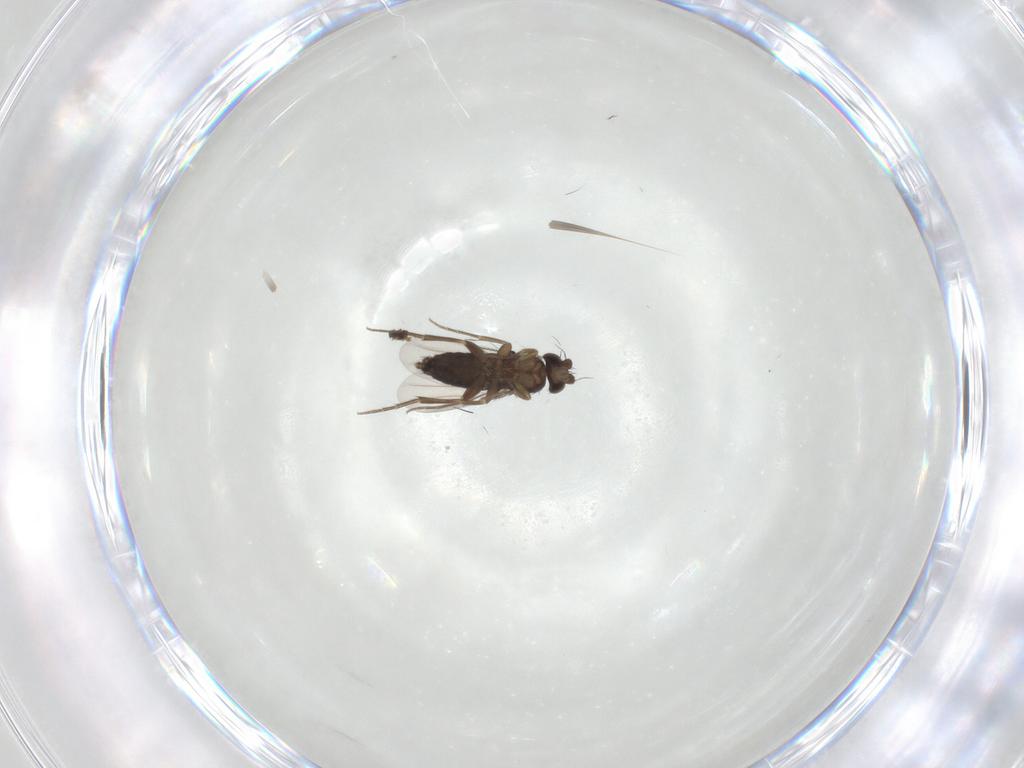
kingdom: Animalia
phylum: Arthropoda
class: Insecta
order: Diptera
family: Phoridae
